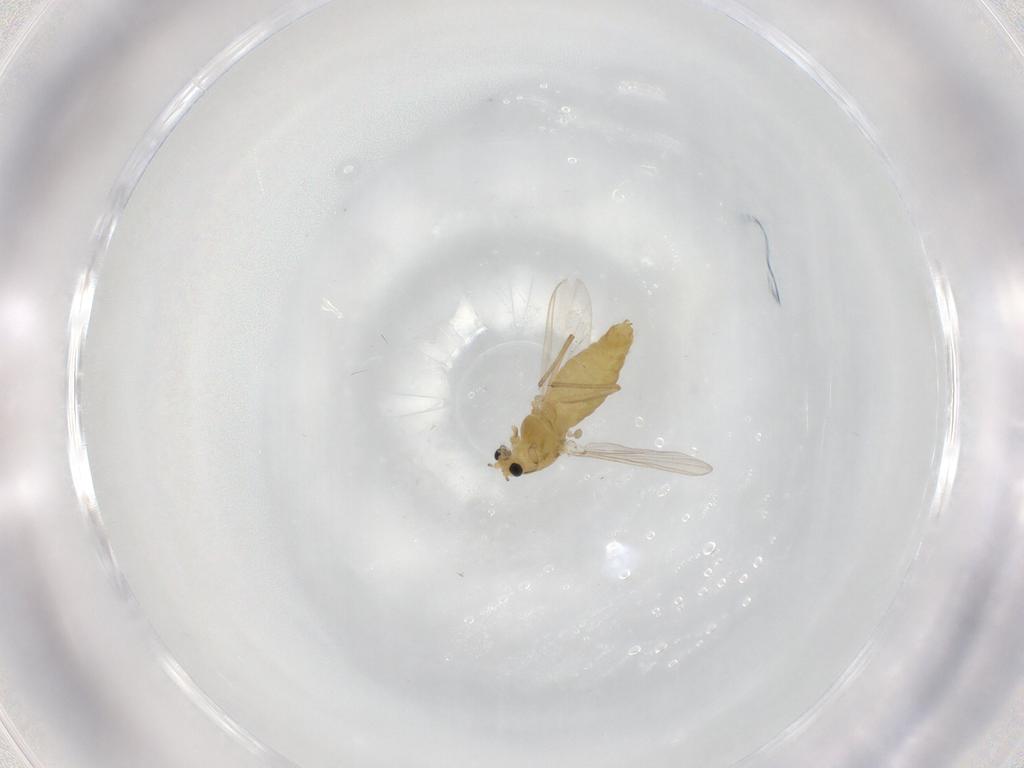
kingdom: Animalia
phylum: Arthropoda
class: Insecta
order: Diptera
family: Chironomidae
